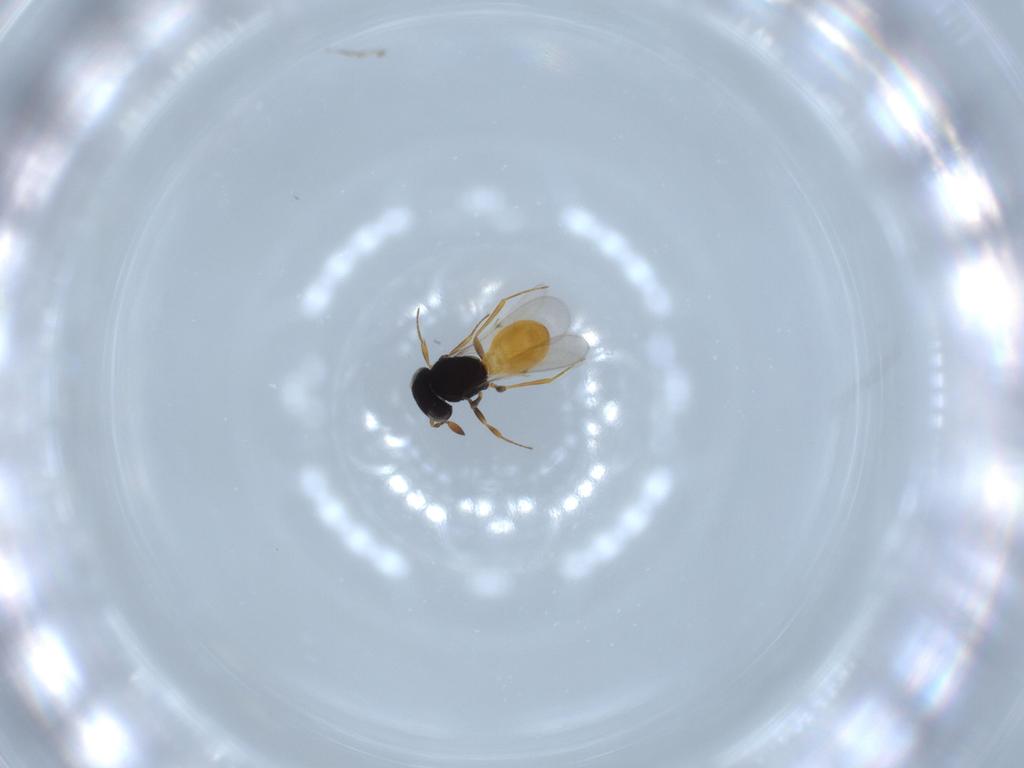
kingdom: Animalia
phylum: Arthropoda
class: Insecta
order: Hymenoptera
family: Scelionidae
